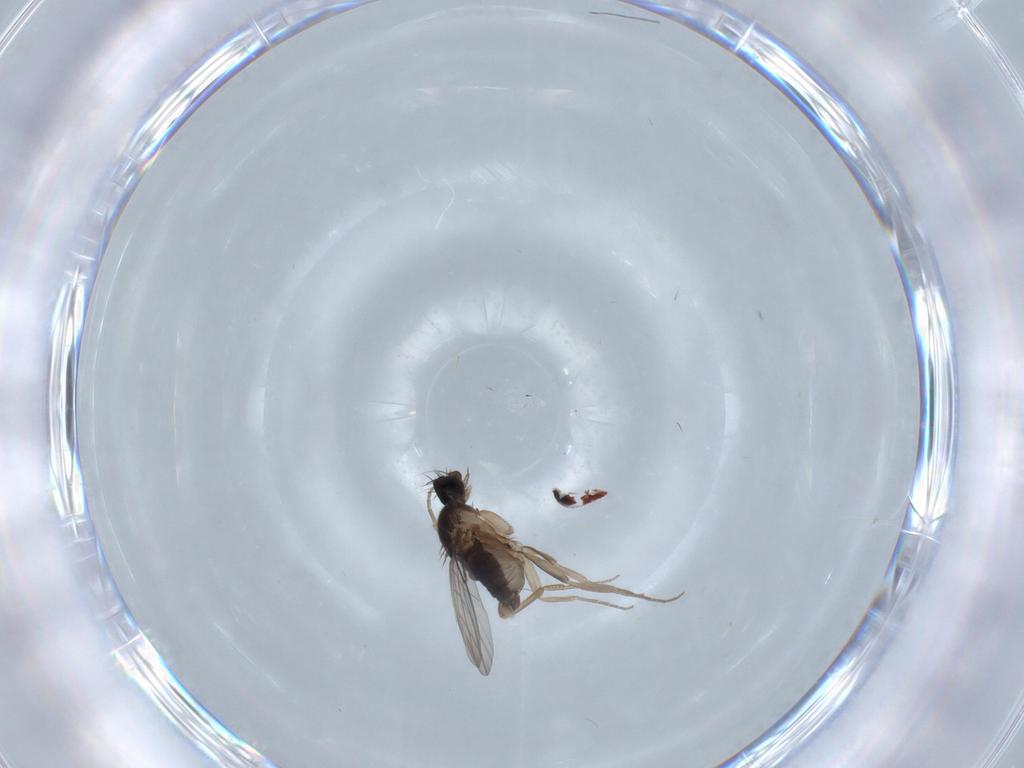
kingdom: Animalia
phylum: Arthropoda
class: Insecta
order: Diptera
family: Phoridae
